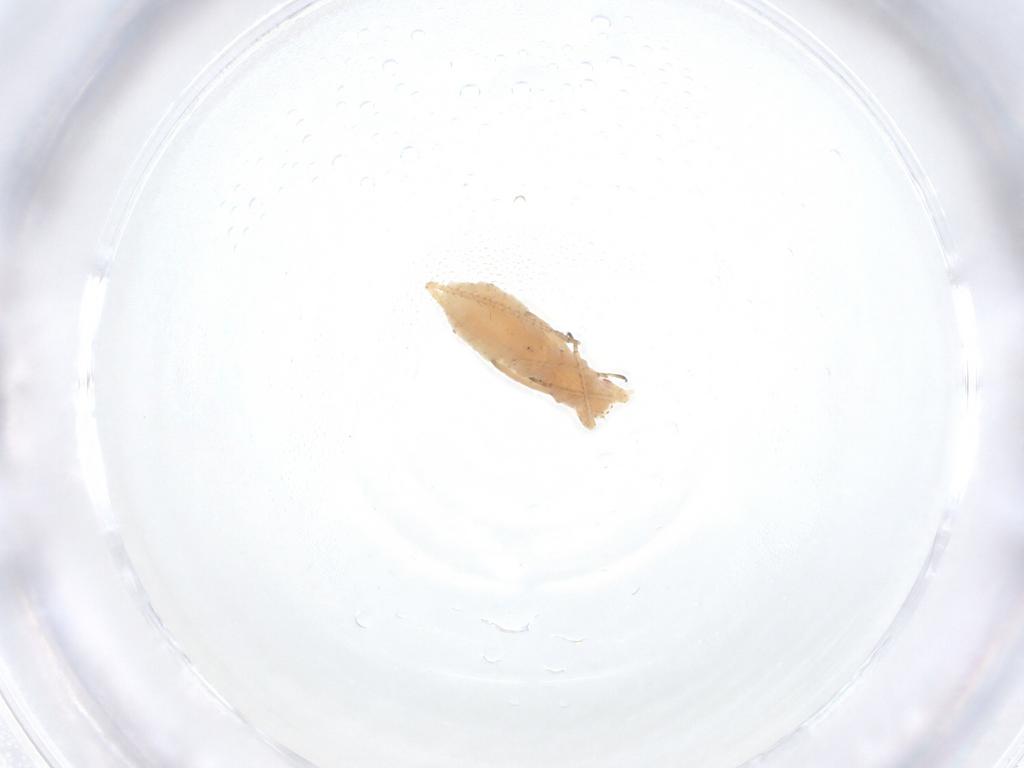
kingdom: Animalia
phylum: Arthropoda
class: Insecta
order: Hemiptera
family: Aphididae
